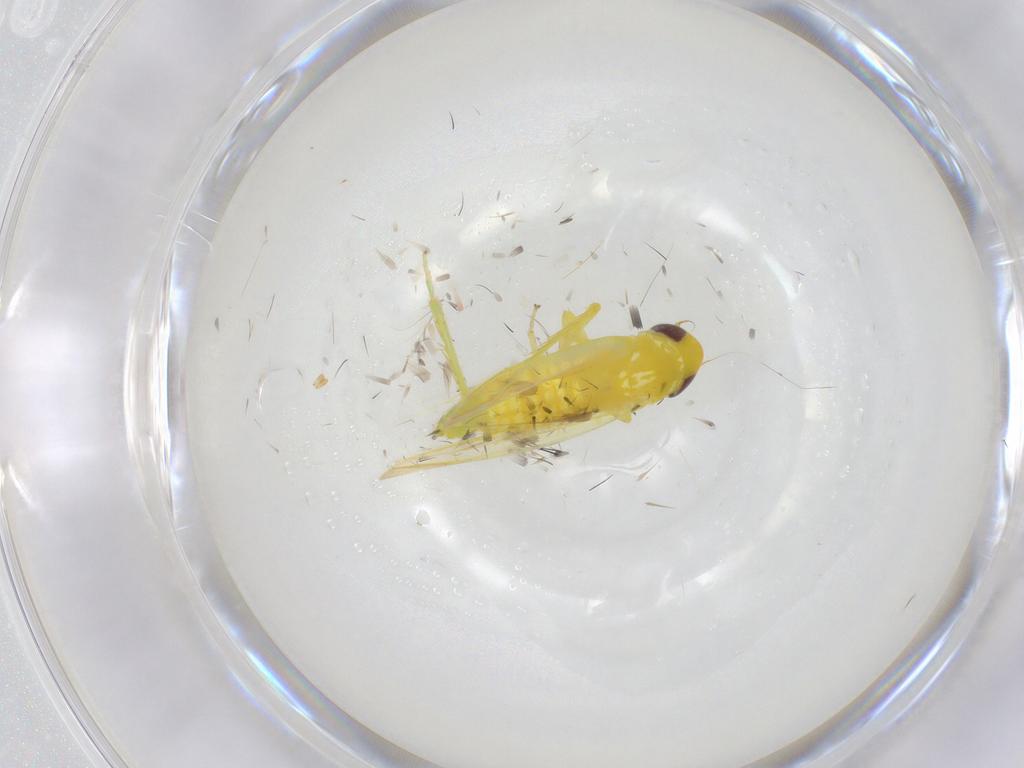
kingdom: Animalia
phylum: Arthropoda
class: Insecta
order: Hemiptera
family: Cicadellidae
